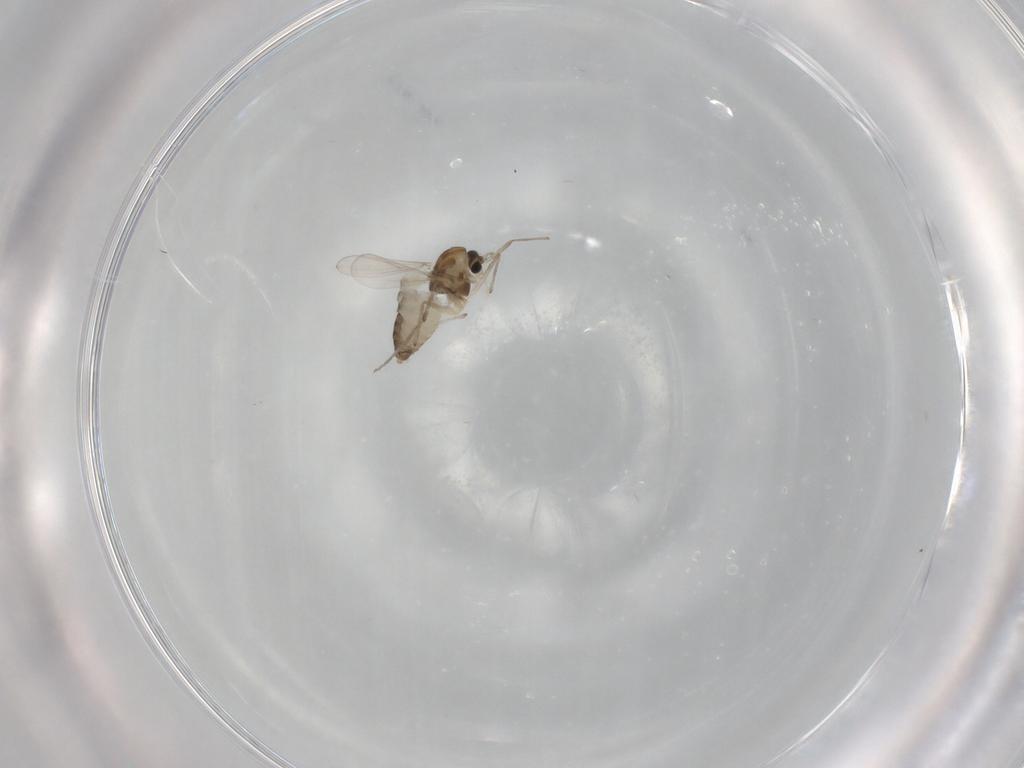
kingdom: Animalia
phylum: Arthropoda
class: Insecta
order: Diptera
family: Chironomidae
